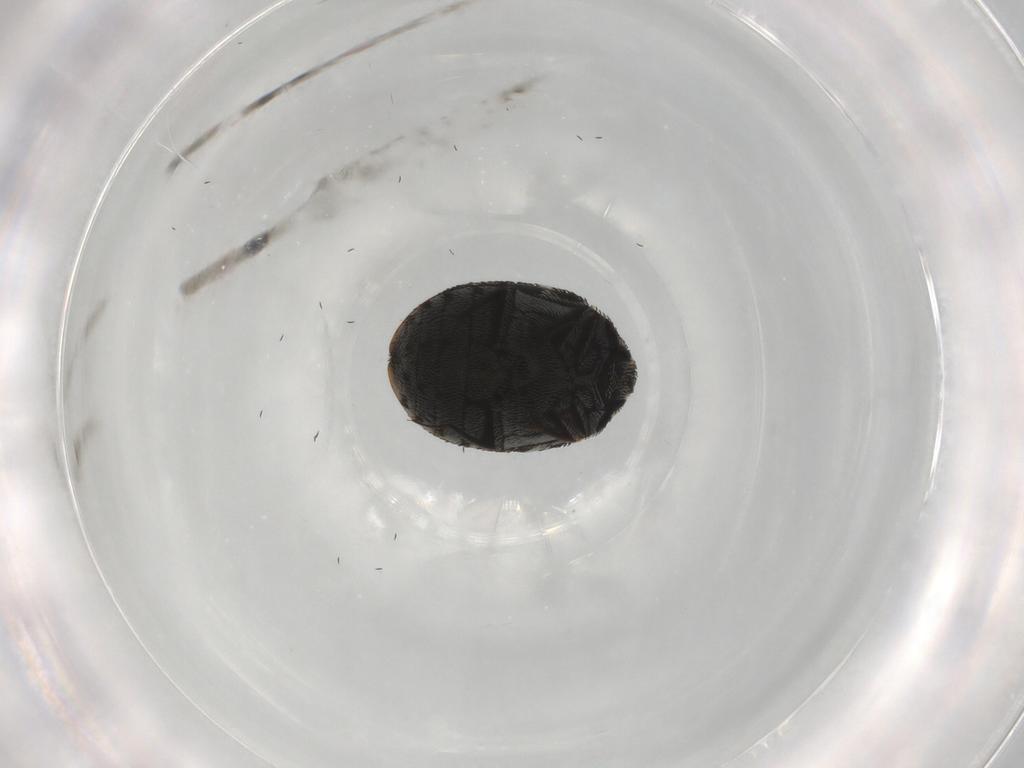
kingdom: Animalia
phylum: Arthropoda
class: Insecta
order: Coleoptera
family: Dermestidae
